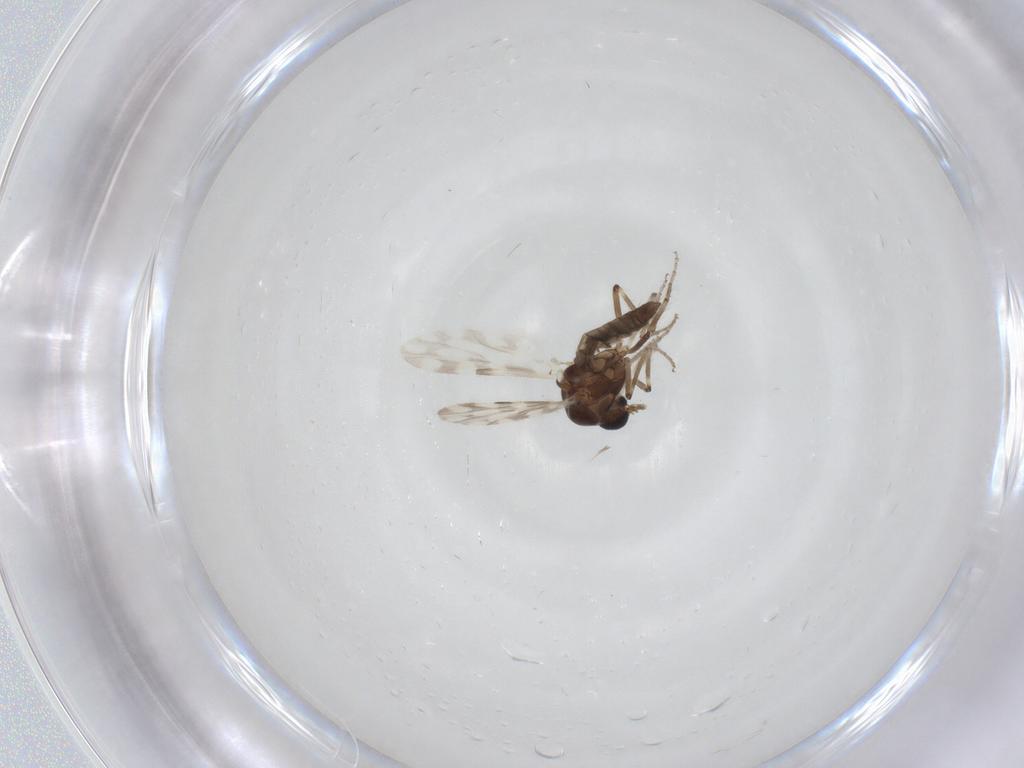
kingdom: Animalia
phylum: Arthropoda
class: Insecta
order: Diptera
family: Ceratopogonidae
